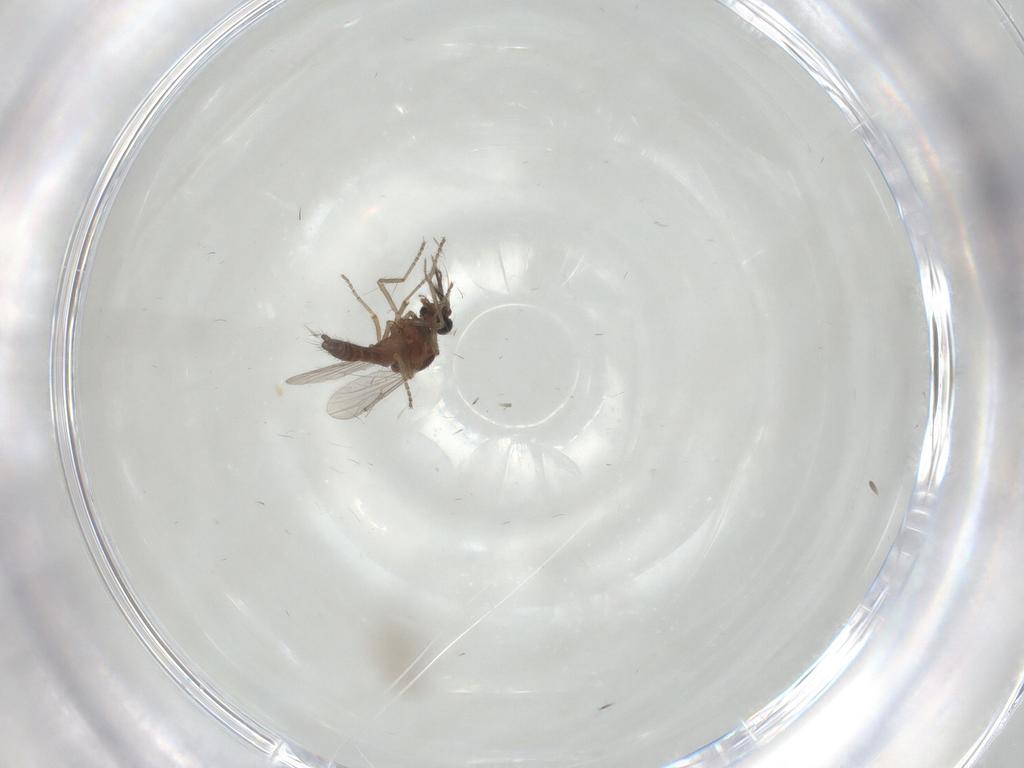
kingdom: Animalia
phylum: Arthropoda
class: Insecta
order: Diptera
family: Ceratopogonidae
